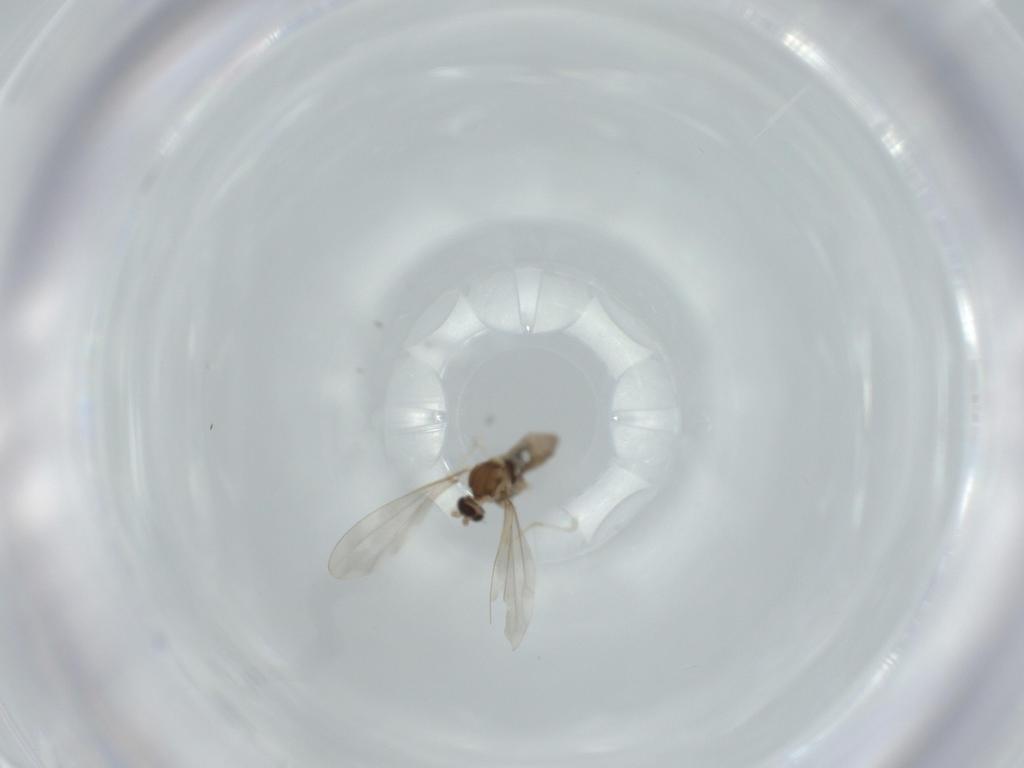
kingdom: Animalia
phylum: Arthropoda
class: Insecta
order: Diptera
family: Cecidomyiidae
